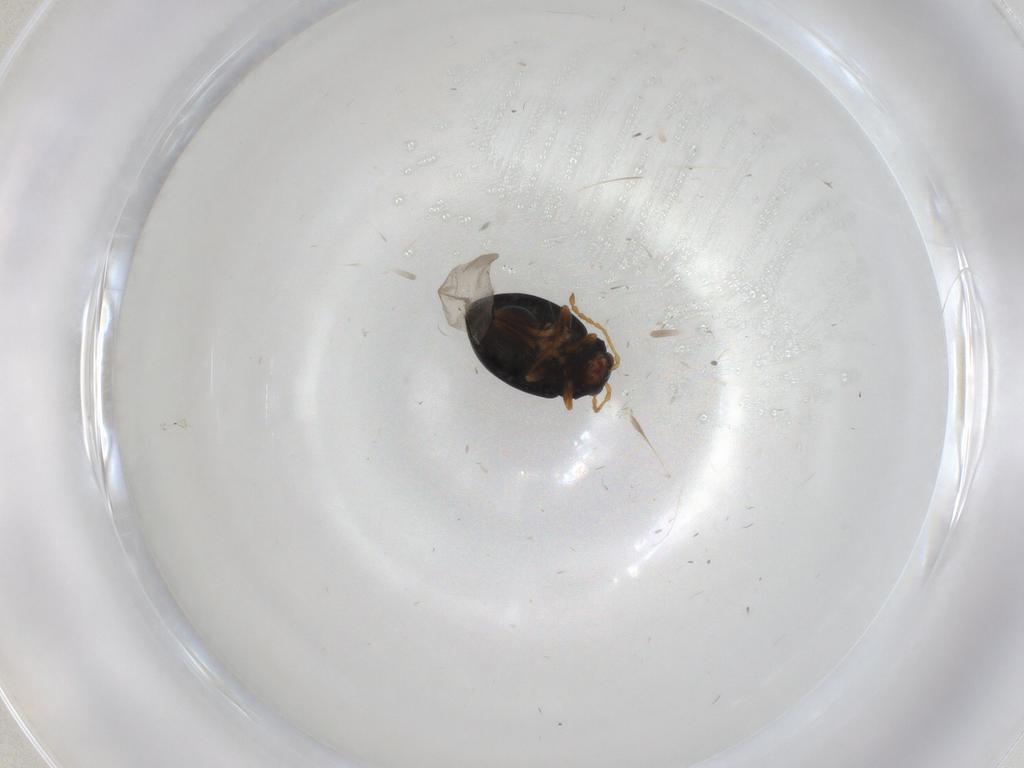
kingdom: Animalia
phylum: Arthropoda
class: Insecta
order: Coleoptera
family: Chrysomelidae
